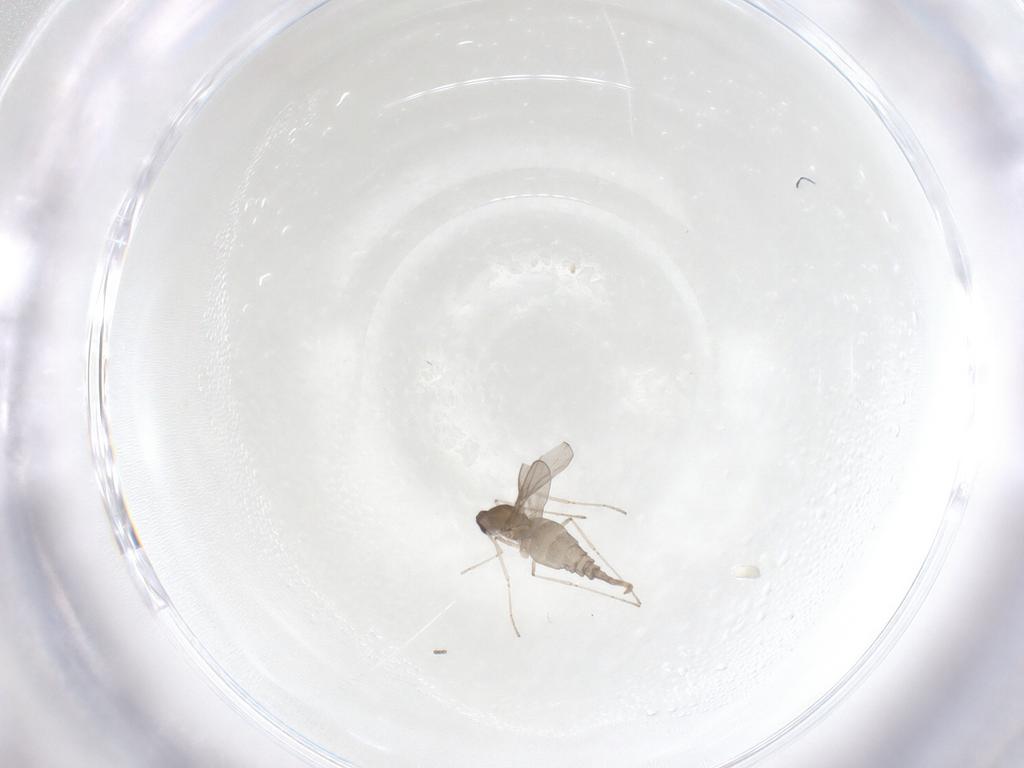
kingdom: Animalia
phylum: Arthropoda
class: Insecta
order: Diptera
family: Cecidomyiidae
